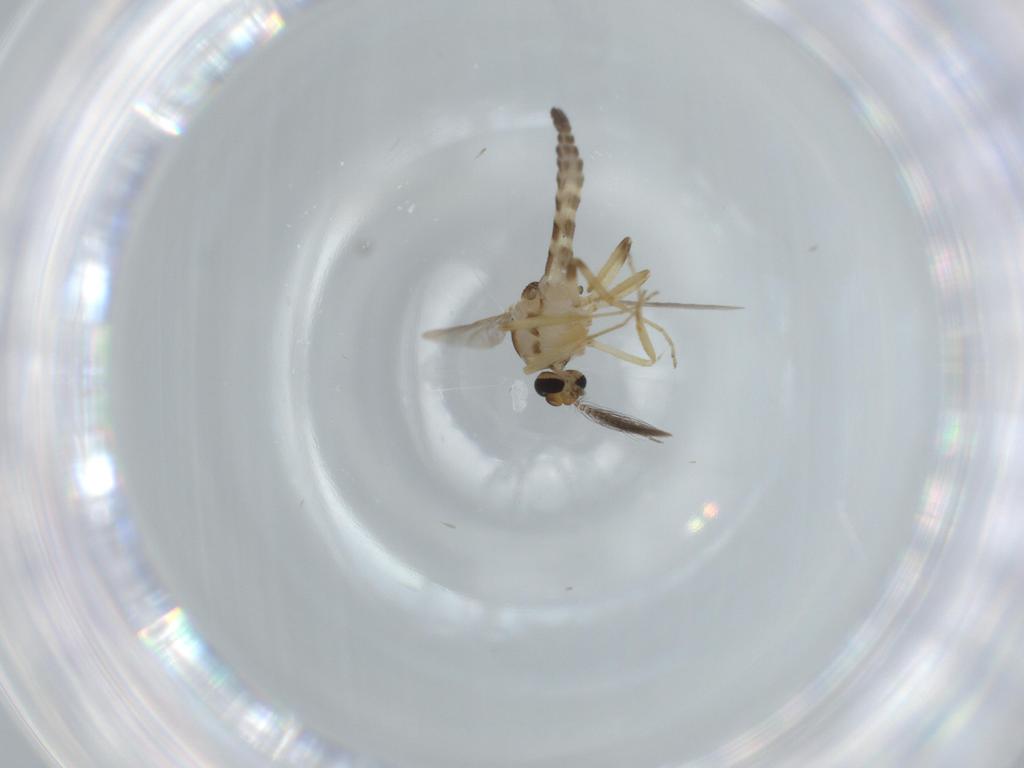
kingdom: Animalia
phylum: Arthropoda
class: Insecta
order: Diptera
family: Ceratopogonidae
